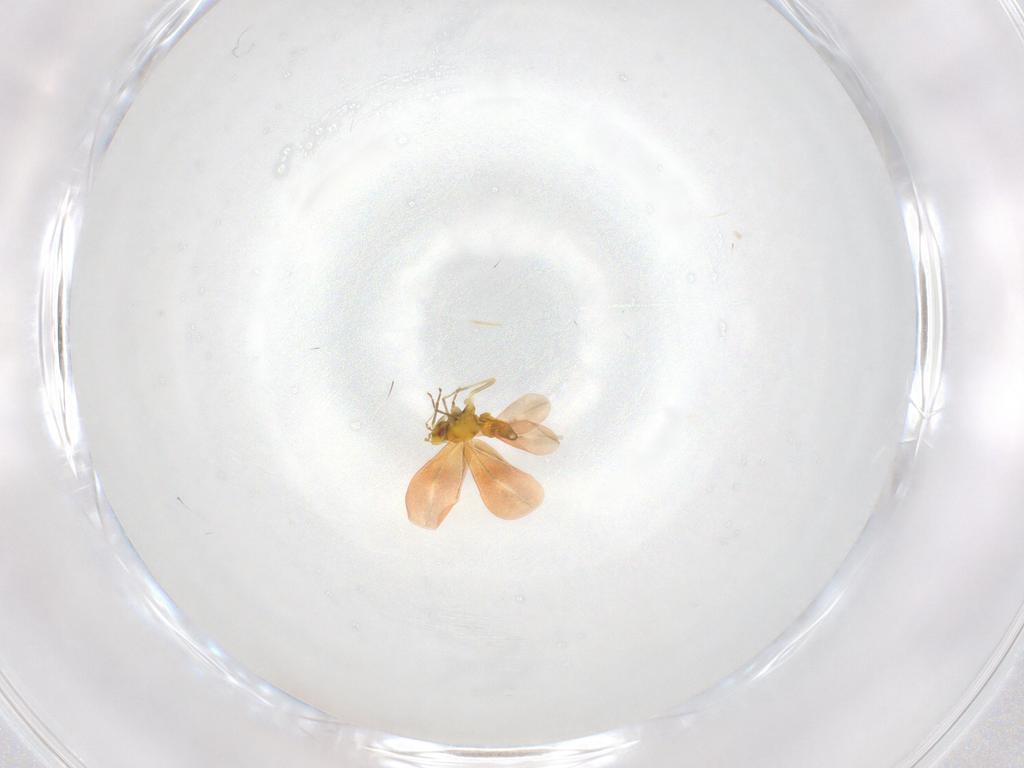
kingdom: Animalia
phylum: Arthropoda
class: Insecta
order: Hemiptera
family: Aleyrodidae
